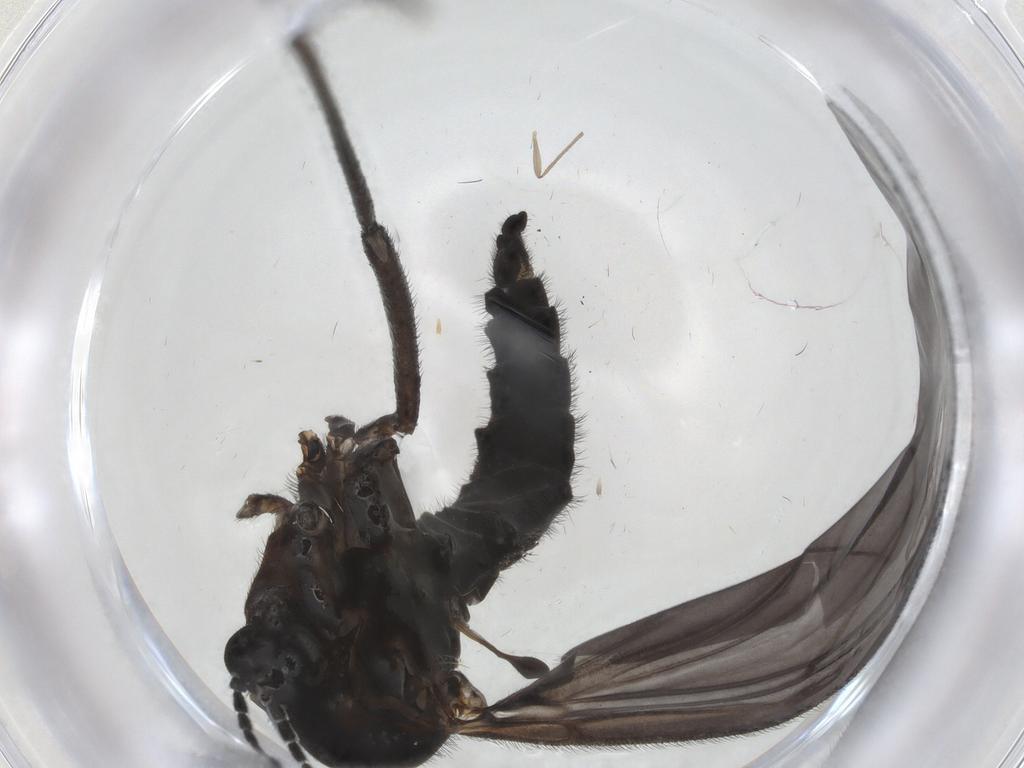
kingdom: Animalia
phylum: Arthropoda
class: Insecta
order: Diptera
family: Sciaridae
